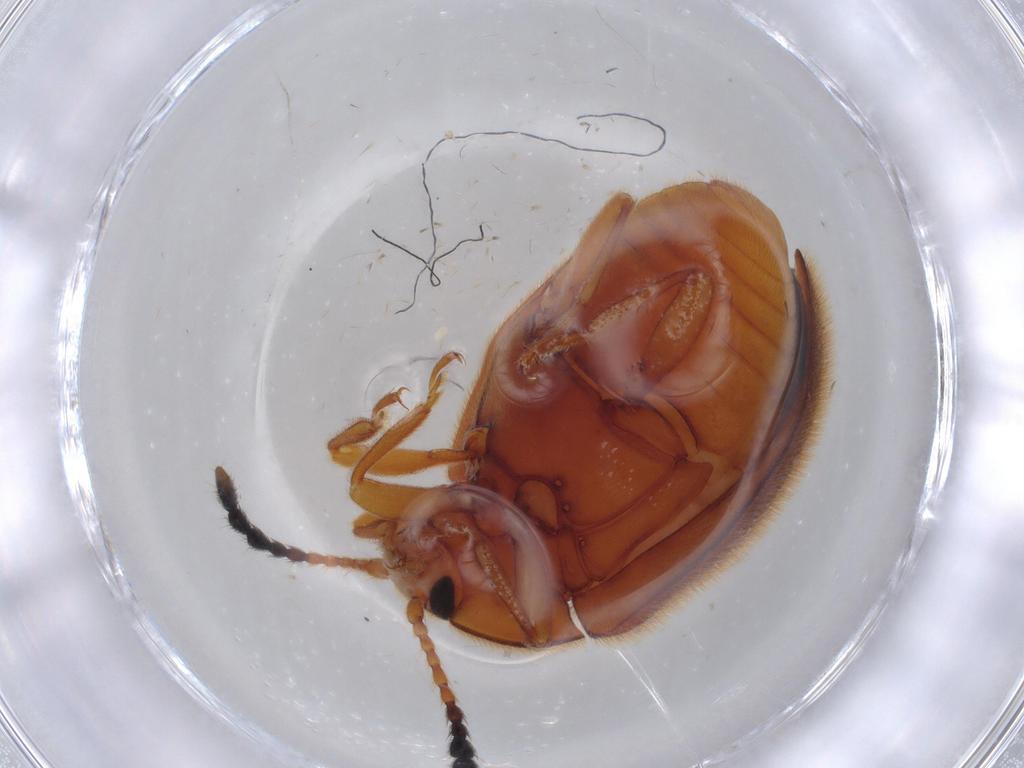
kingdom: Animalia
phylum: Arthropoda
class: Insecta
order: Coleoptera
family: Endomychidae
